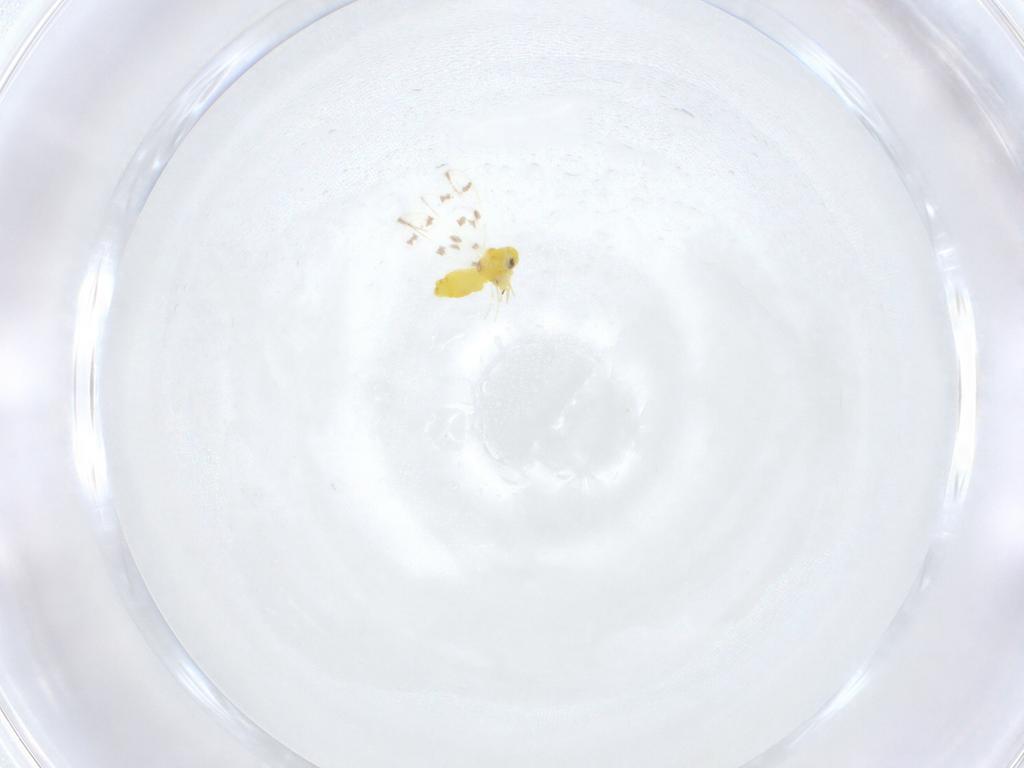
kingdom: Animalia
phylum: Arthropoda
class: Insecta
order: Hemiptera
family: Aleyrodidae
